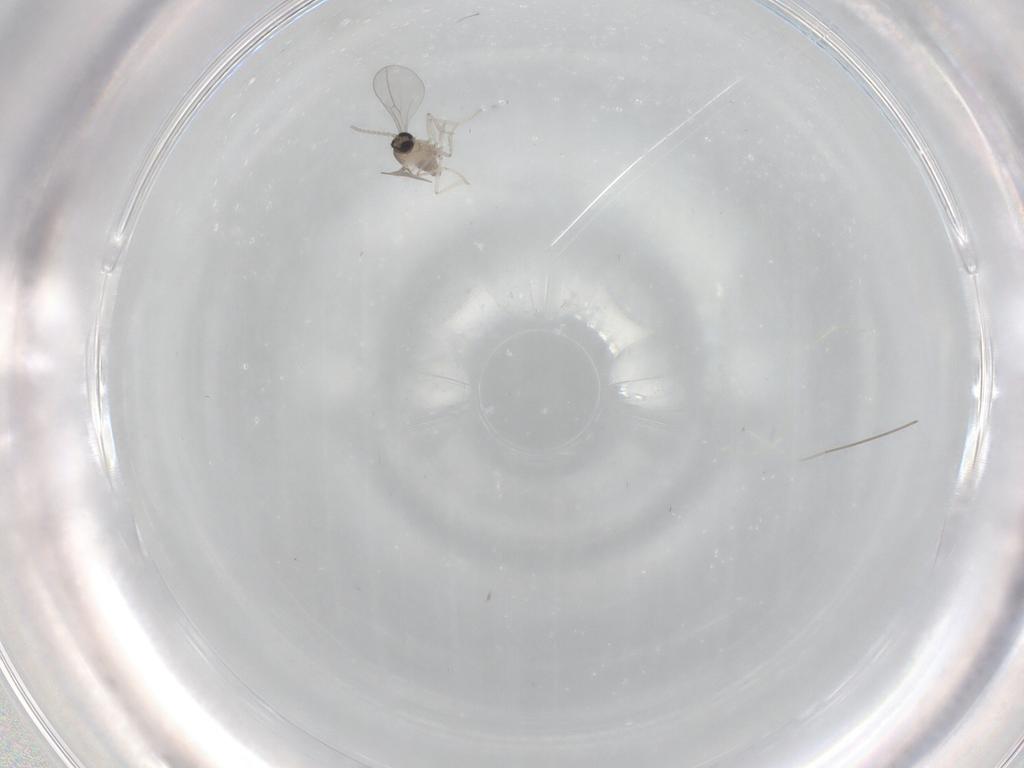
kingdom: Animalia
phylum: Arthropoda
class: Insecta
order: Diptera
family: Cecidomyiidae
